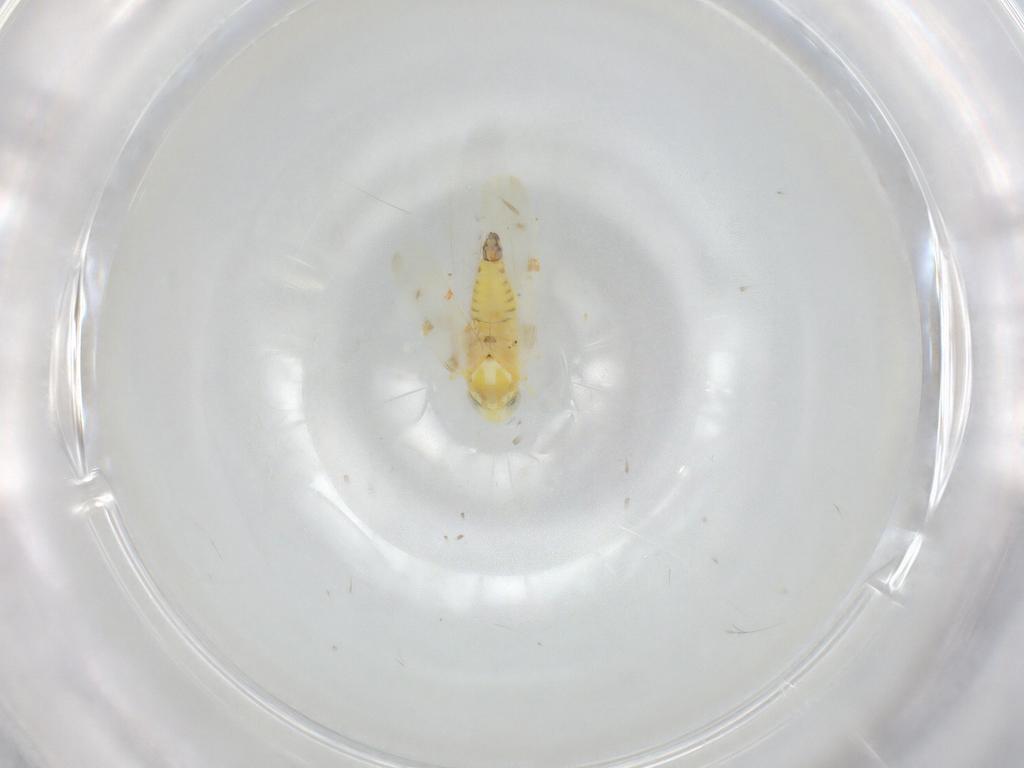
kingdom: Animalia
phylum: Arthropoda
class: Insecta
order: Hemiptera
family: Cicadellidae
